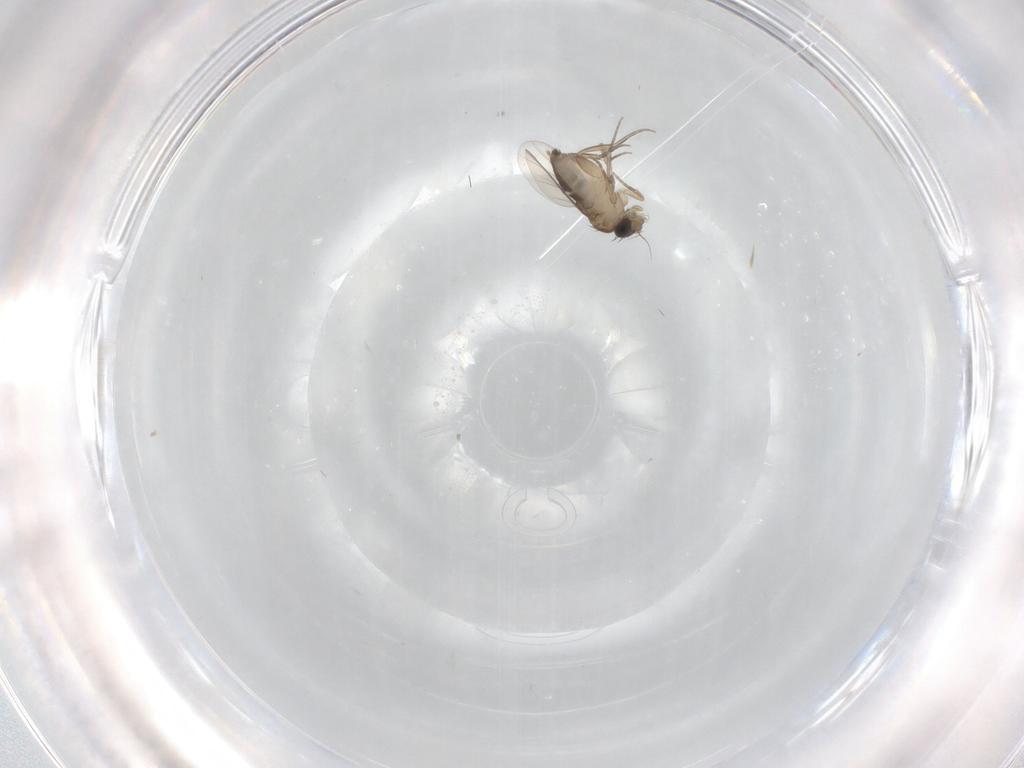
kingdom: Animalia
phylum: Arthropoda
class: Insecta
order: Diptera
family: Phoridae
